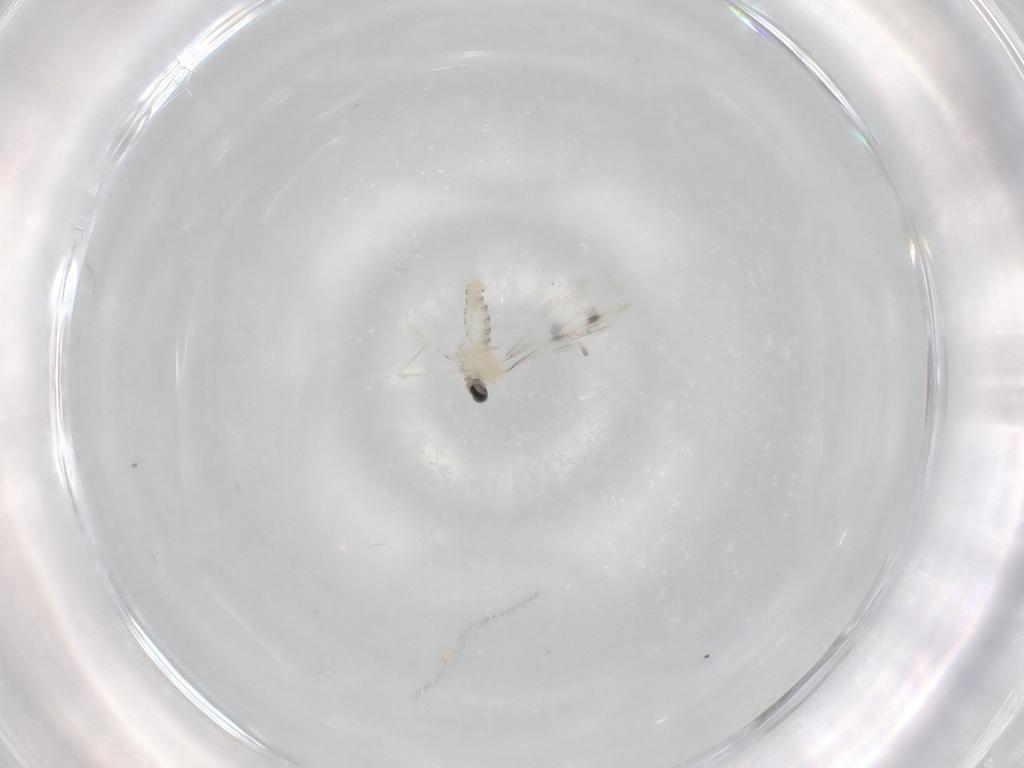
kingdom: Animalia
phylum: Arthropoda
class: Insecta
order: Diptera
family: Cecidomyiidae
